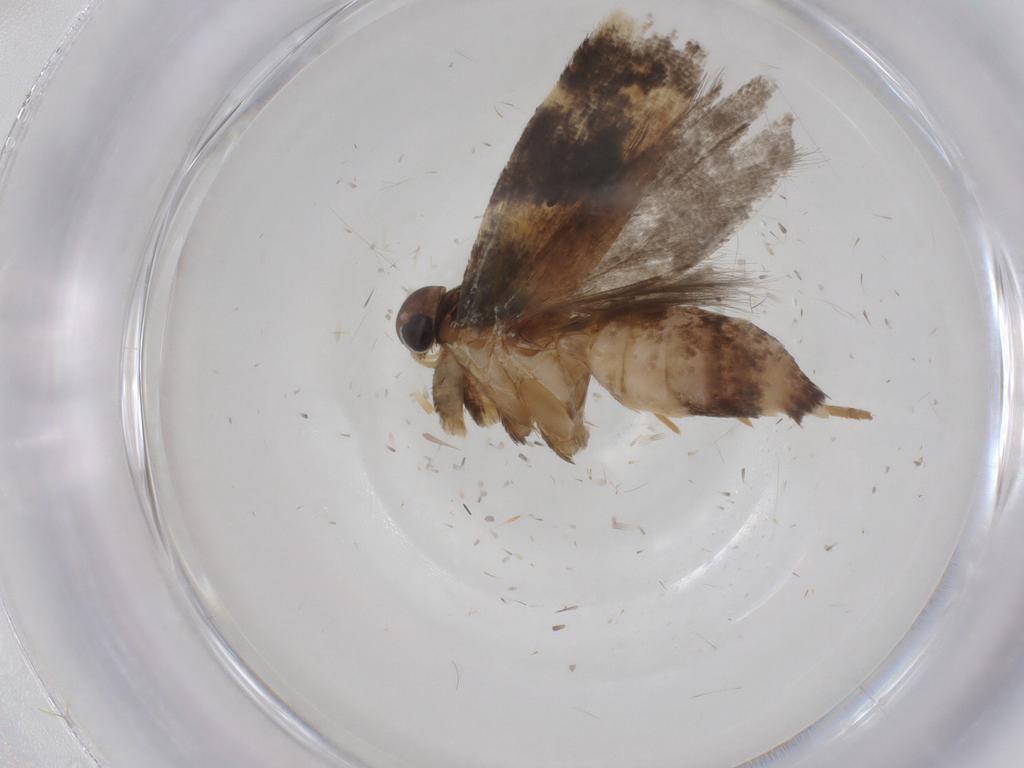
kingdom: Animalia
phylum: Arthropoda
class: Insecta
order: Lepidoptera
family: Gelechiidae
